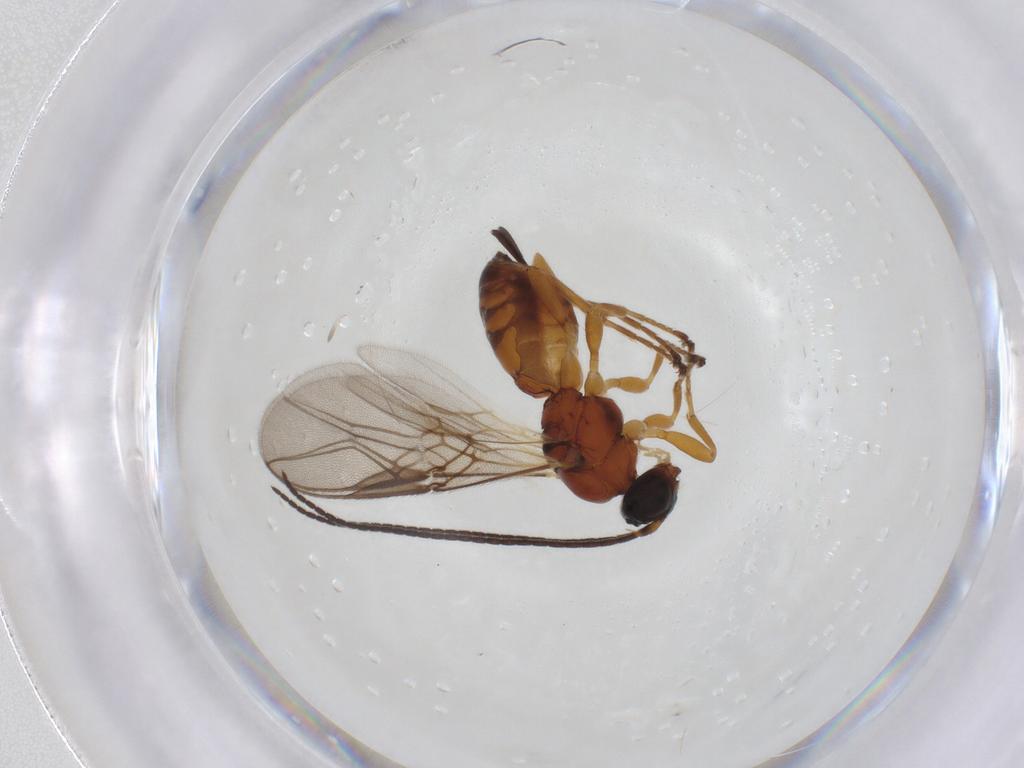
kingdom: Animalia
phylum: Arthropoda
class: Insecta
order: Hymenoptera
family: Braconidae
